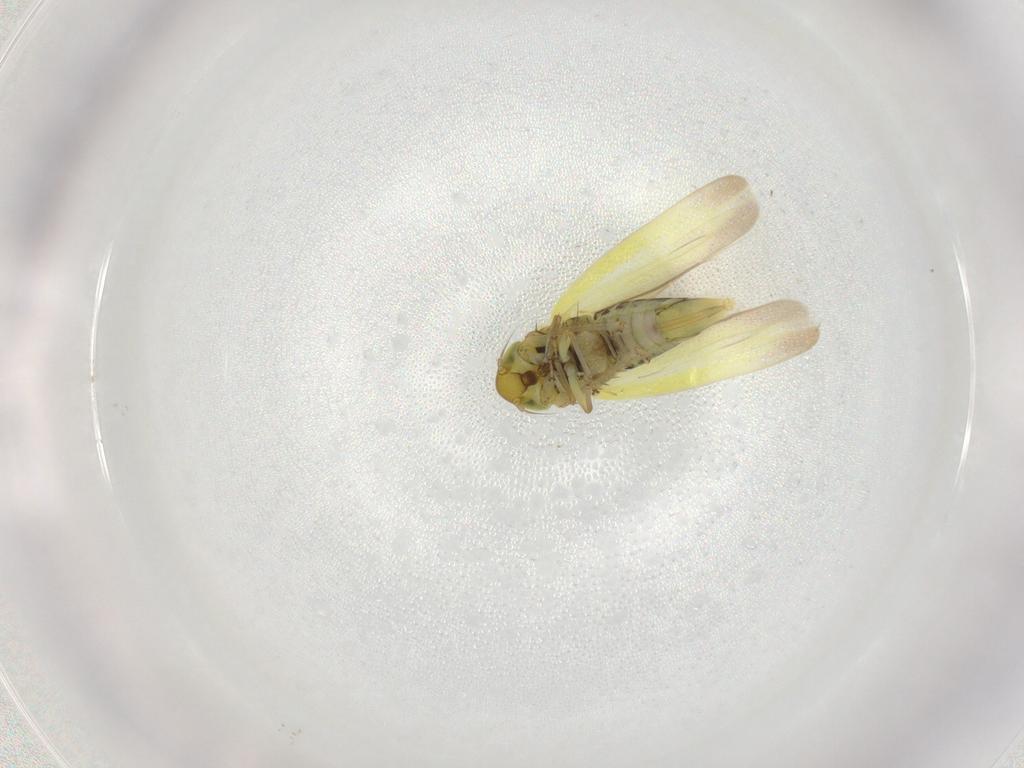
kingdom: Animalia
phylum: Arthropoda
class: Insecta
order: Hemiptera
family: Cicadellidae
